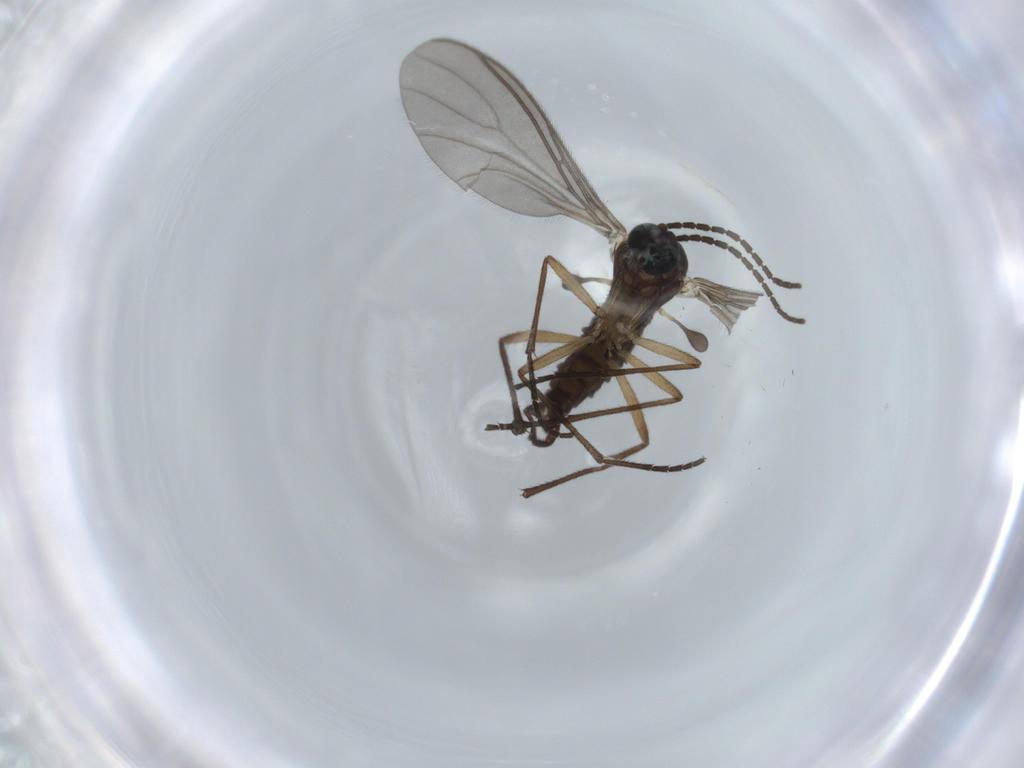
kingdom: Animalia
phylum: Arthropoda
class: Insecta
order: Diptera
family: Sciaridae
